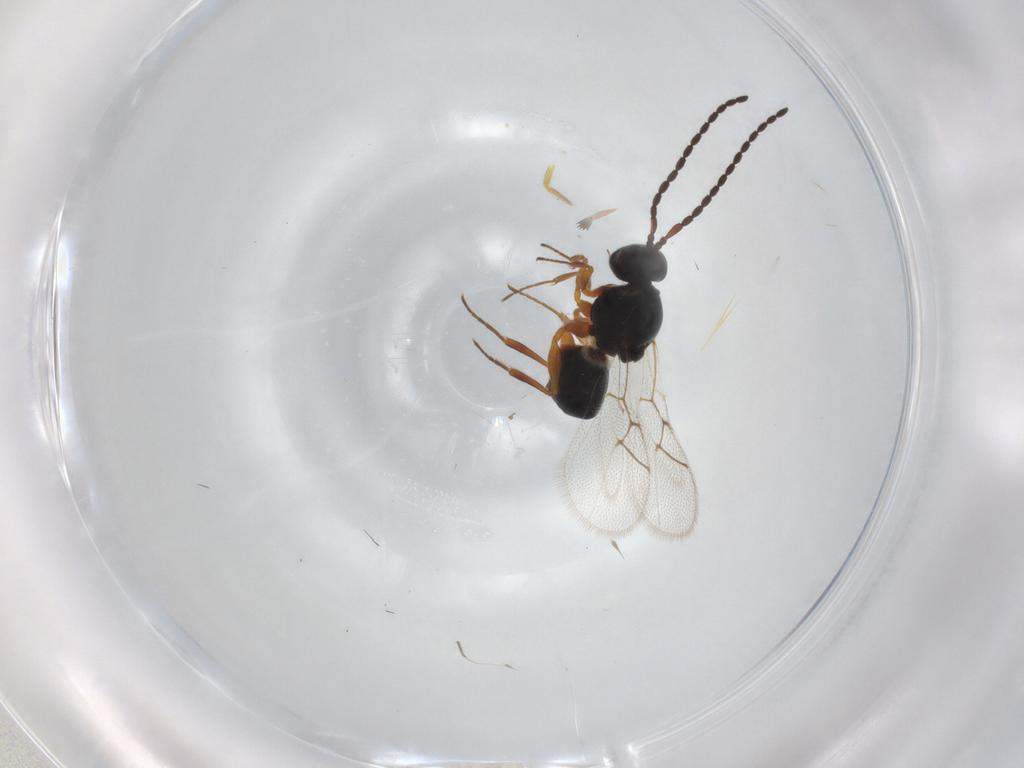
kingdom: Animalia
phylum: Arthropoda
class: Insecta
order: Hymenoptera
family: Figitidae
